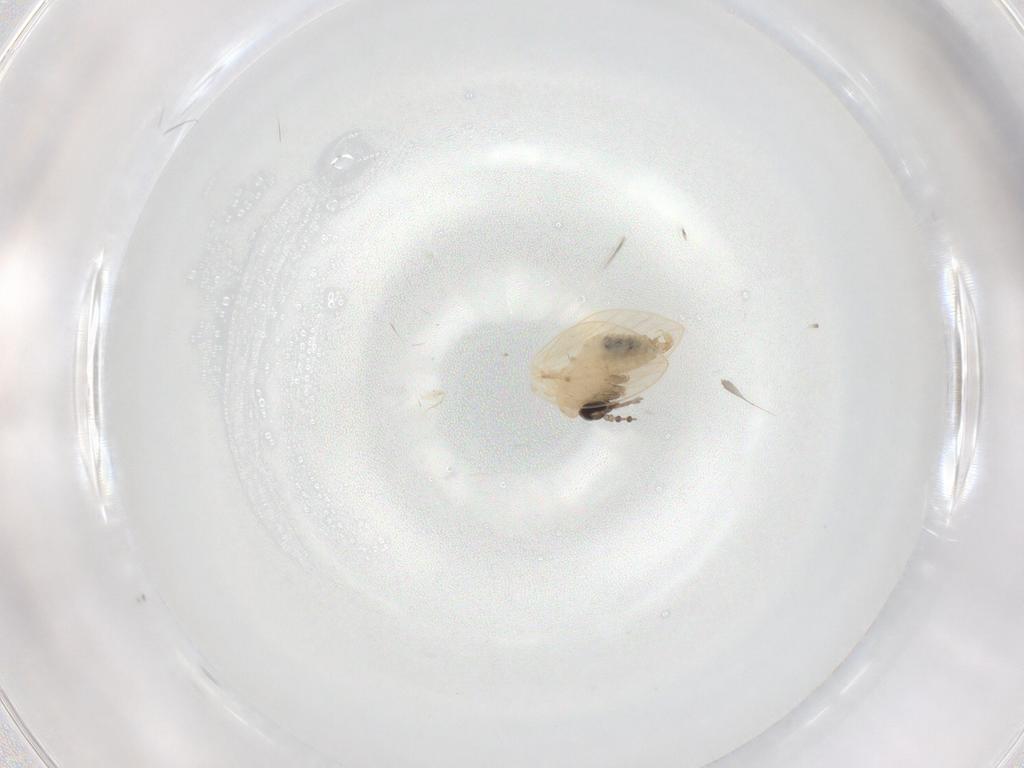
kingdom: Animalia
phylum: Arthropoda
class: Insecta
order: Diptera
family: Psychodidae
